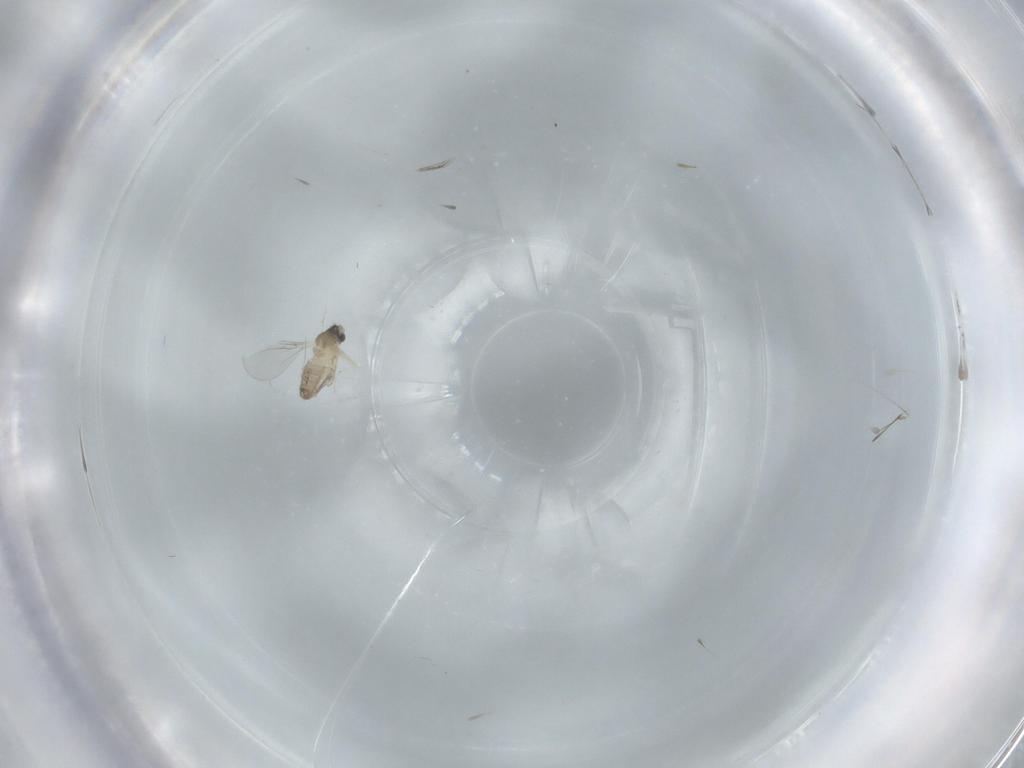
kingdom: Animalia
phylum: Arthropoda
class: Insecta
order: Diptera
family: Cecidomyiidae
